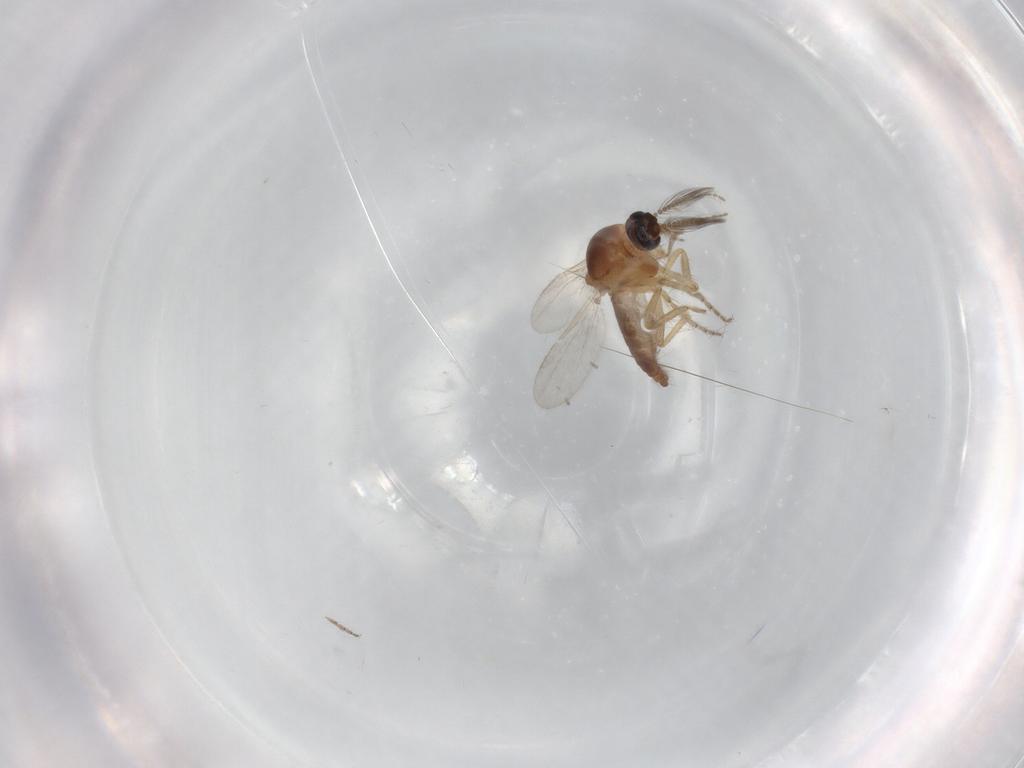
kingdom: Animalia
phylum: Arthropoda
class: Insecta
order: Diptera
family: Ceratopogonidae
